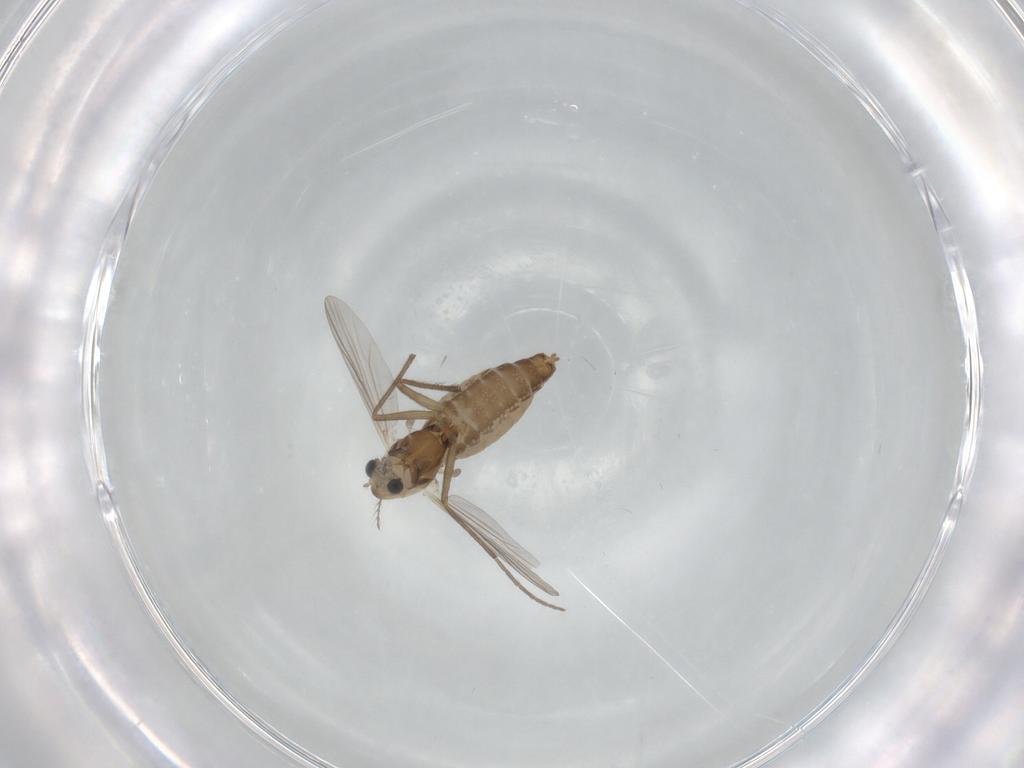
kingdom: Animalia
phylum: Arthropoda
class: Insecta
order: Diptera
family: Chironomidae
